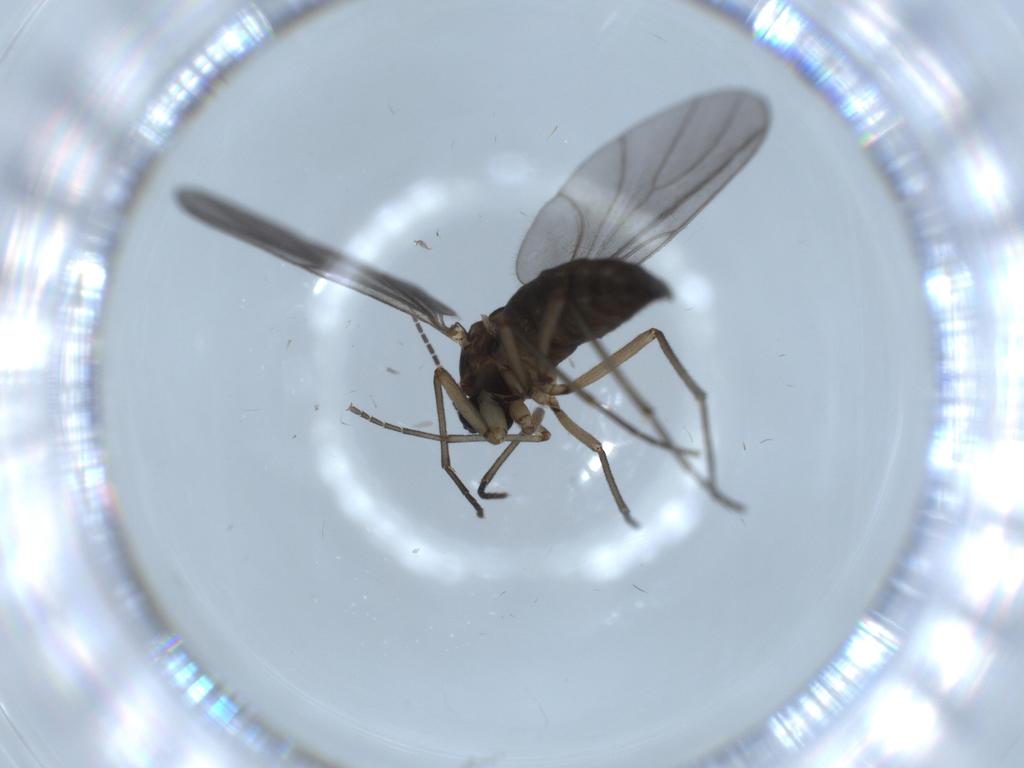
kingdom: Animalia
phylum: Arthropoda
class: Insecta
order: Diptera
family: Sciaridae
